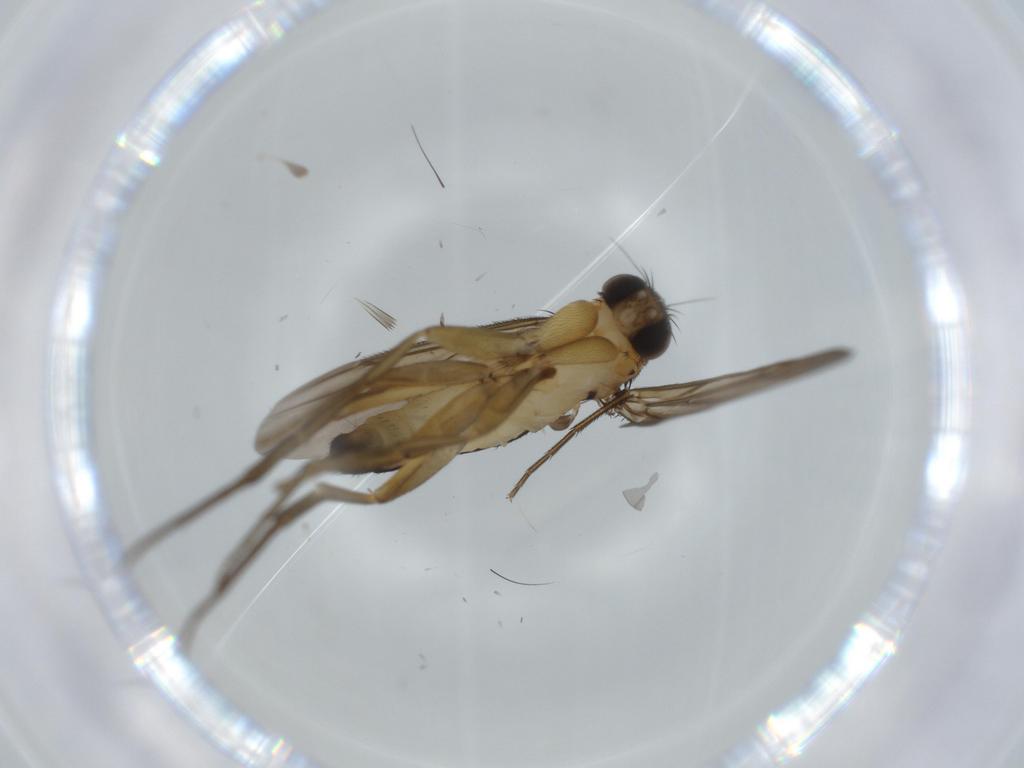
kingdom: Animalia
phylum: Arthropoda
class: Insecta
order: Diptera
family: Phoridae
